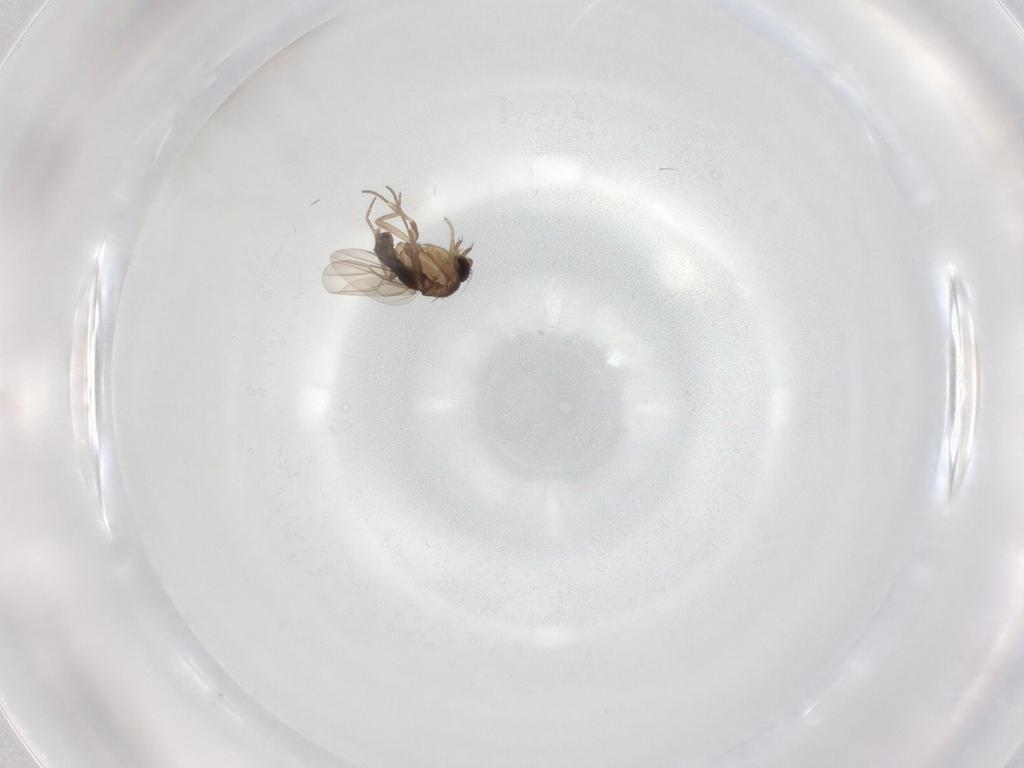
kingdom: Animalia
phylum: Arthropoda
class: Insecta
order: Diptera
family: Phoridae
